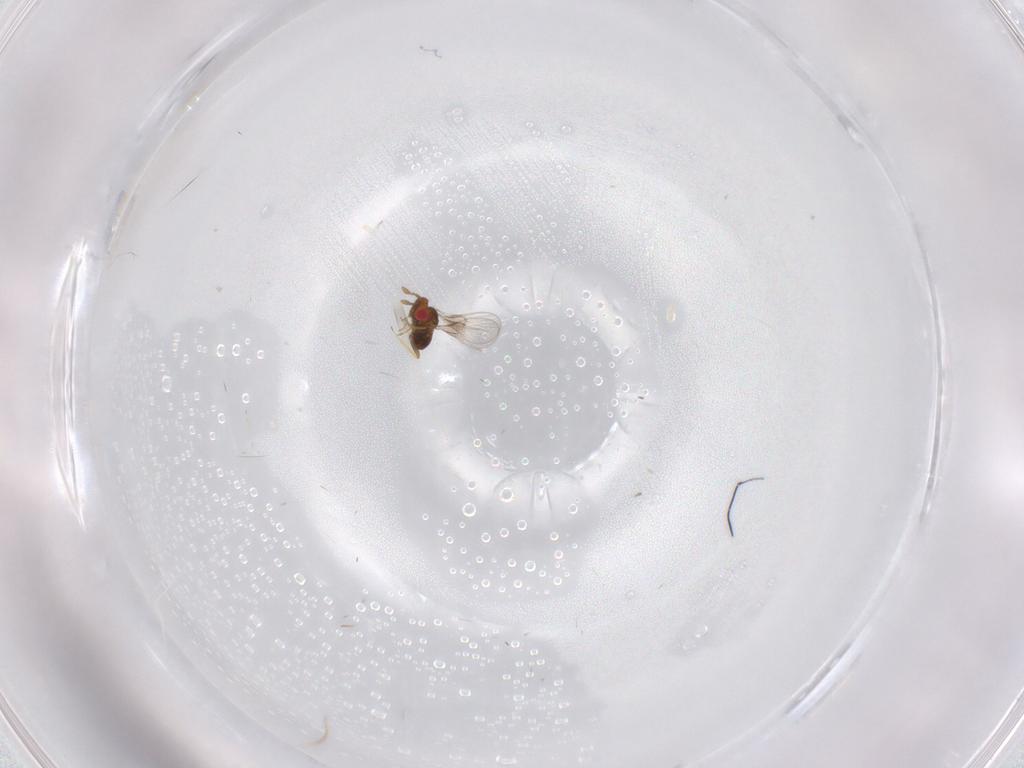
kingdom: Animalia
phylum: Arthropoda
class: Insecta
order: Hymenoptera
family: Trichogrammatidae
